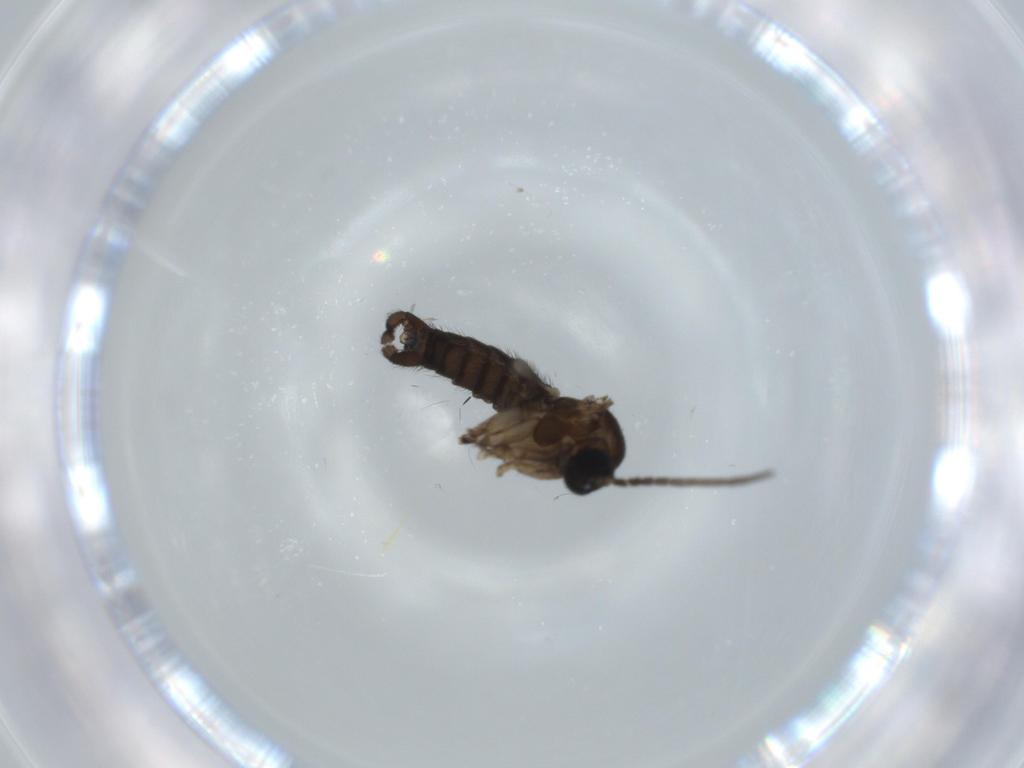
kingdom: Animalia
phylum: Arthropoda
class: Insecta
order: Diptera
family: Sciaridae
